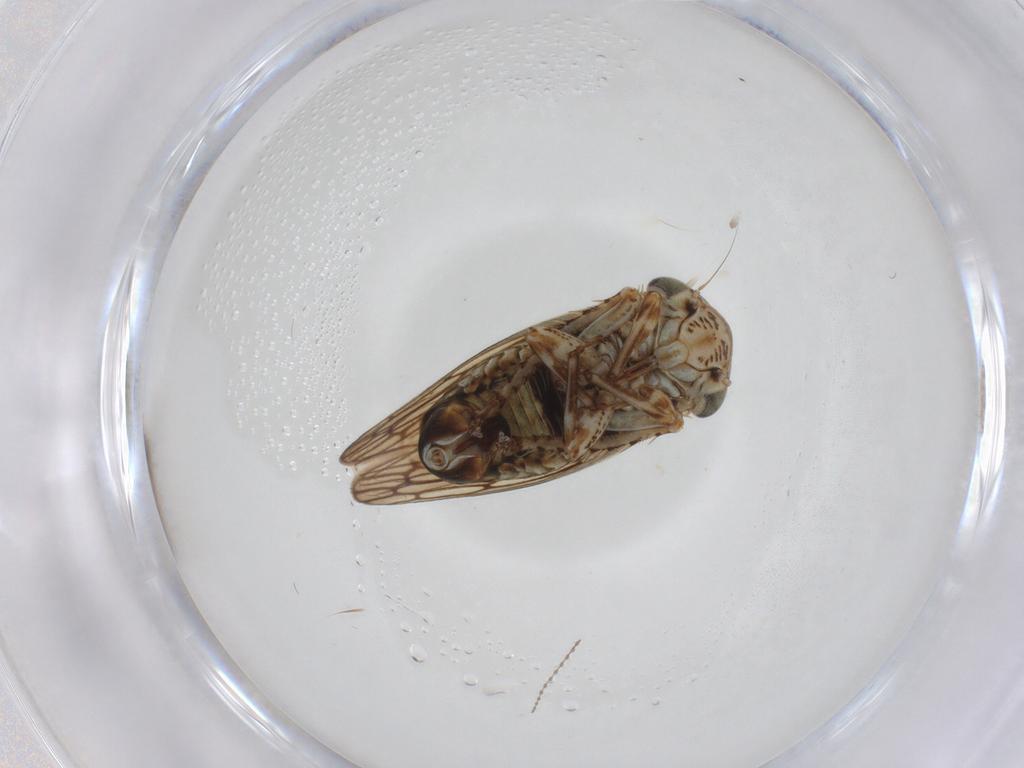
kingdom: Animalia
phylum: Arthropoda
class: Insecta
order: Hemiptera
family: Cicadellidae
